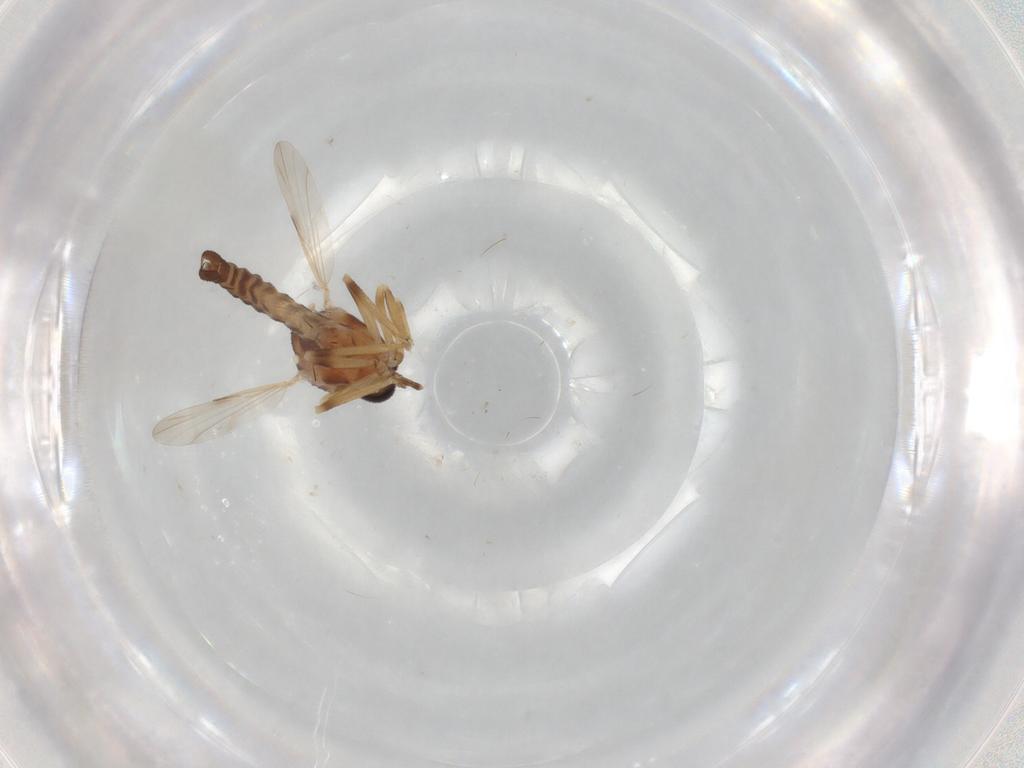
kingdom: Animalia
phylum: Arthropoda
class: Insecta
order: Diptera
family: Ceratopogonidae
